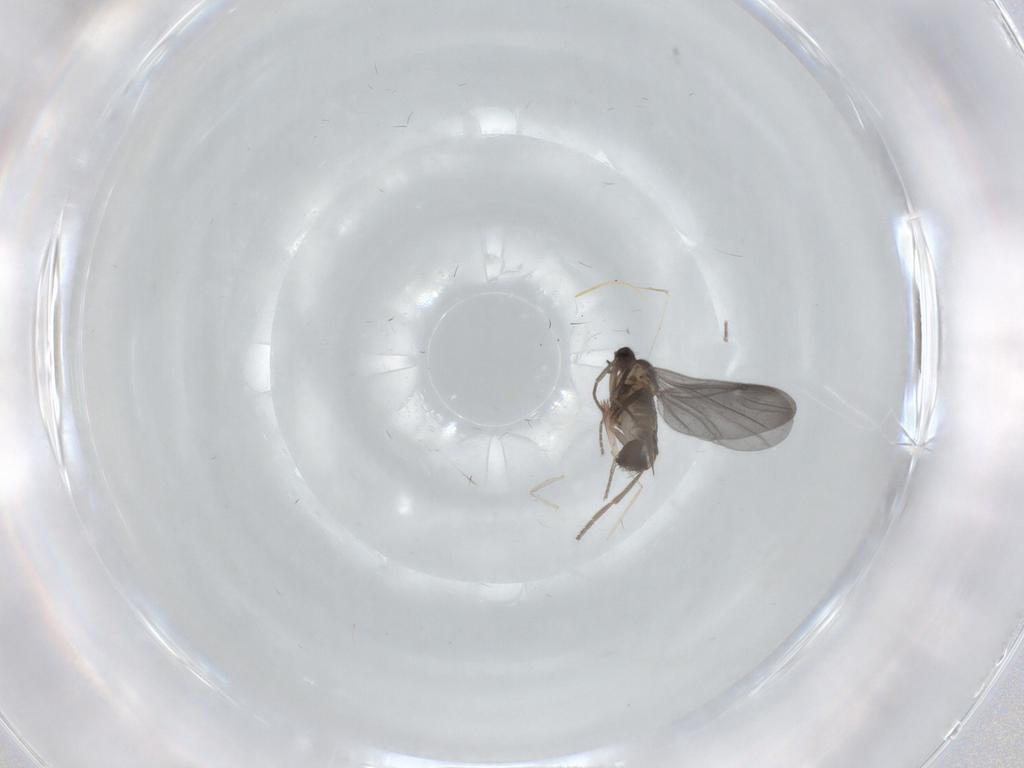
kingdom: Animalia
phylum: Arthropoda
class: Insecta
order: Diptera
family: Phoridae
